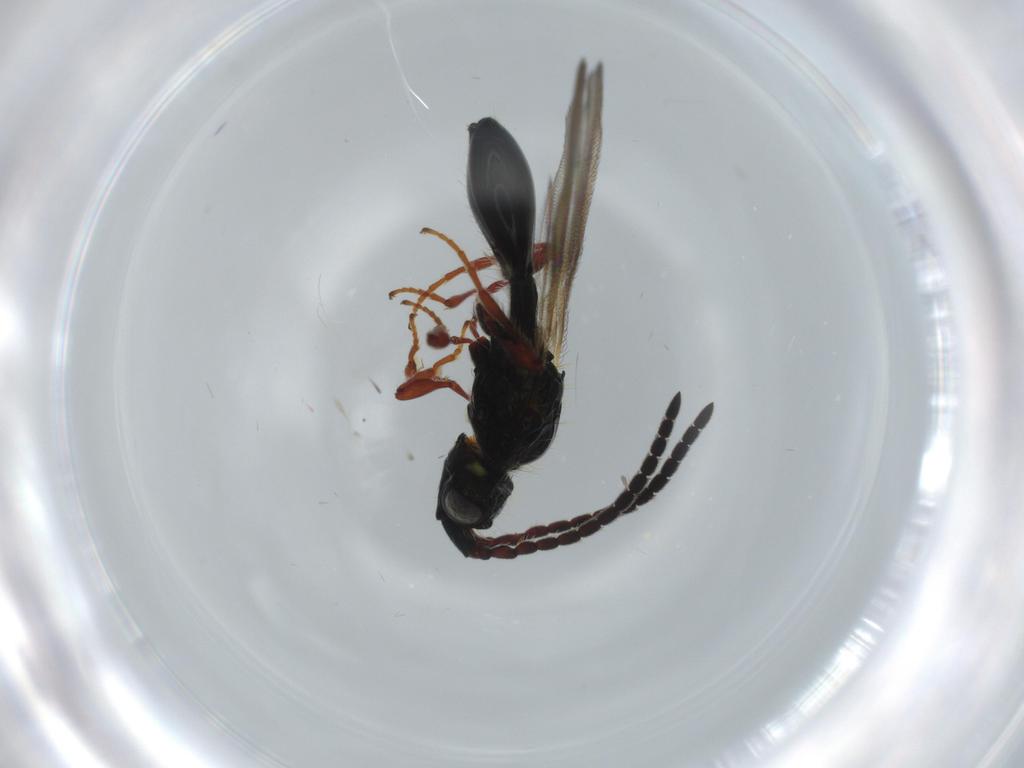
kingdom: Animalia
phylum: Arthropoda
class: Insecta
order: Hymenoptera
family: Diapriidae
